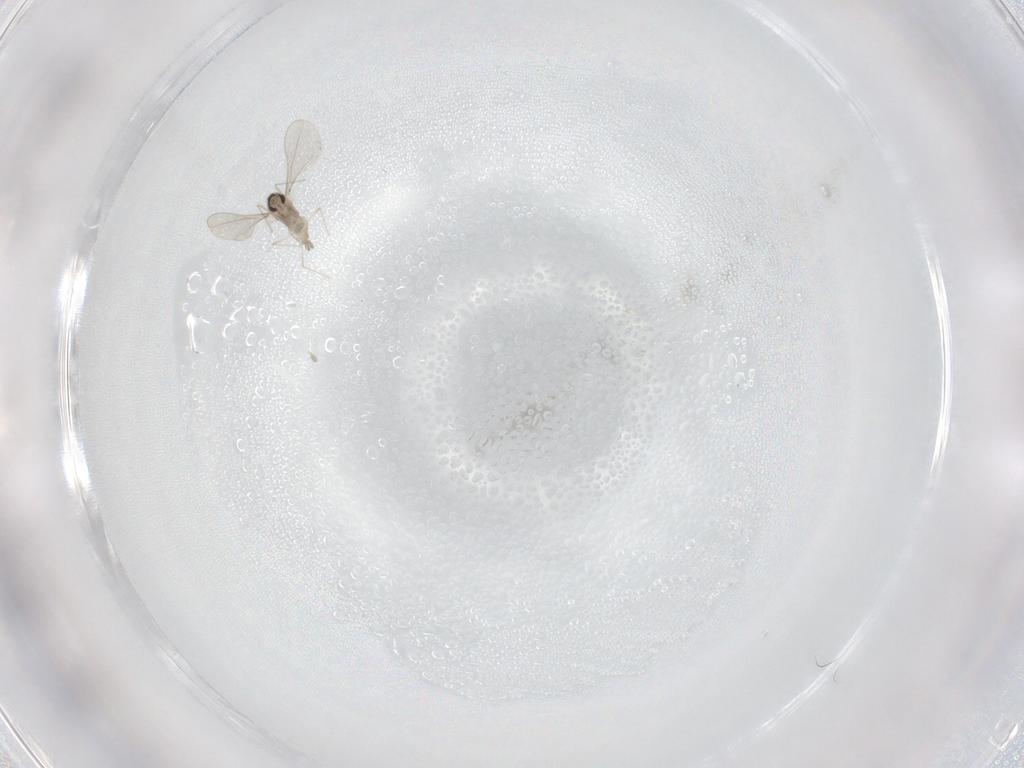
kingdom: Animalia
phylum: Arthropoda
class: Insecta
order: Diptera
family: Cecidomyiidae
